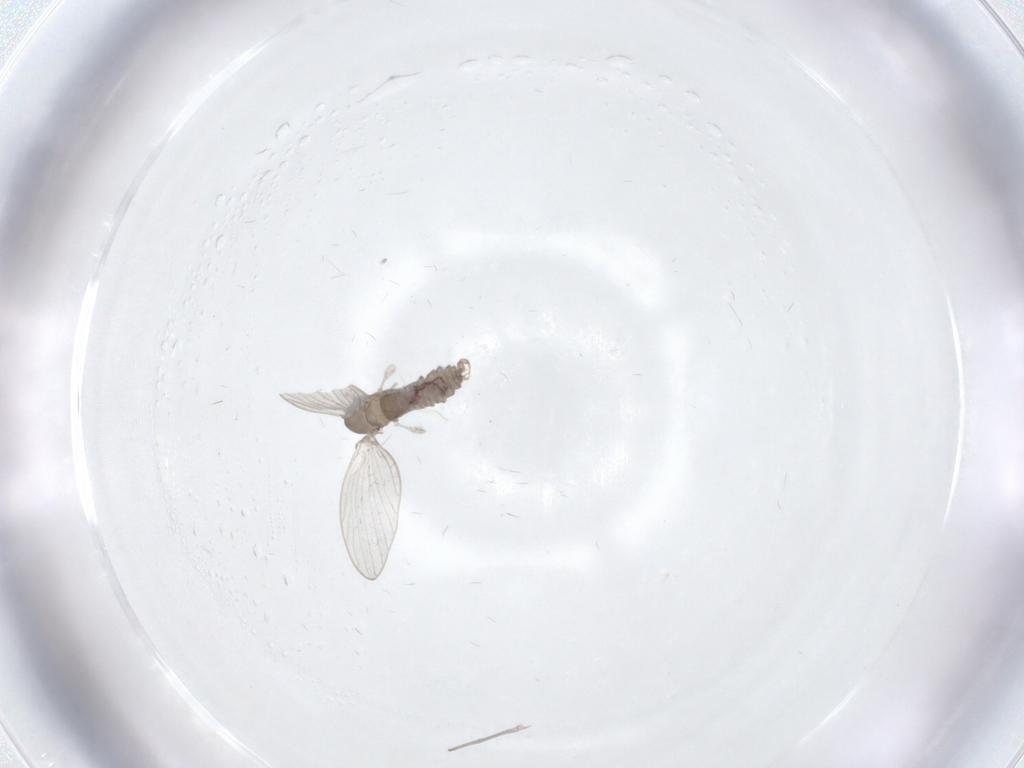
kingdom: Animalia
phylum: Arthropoda
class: Insecta
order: Diptera
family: Psychodidae
